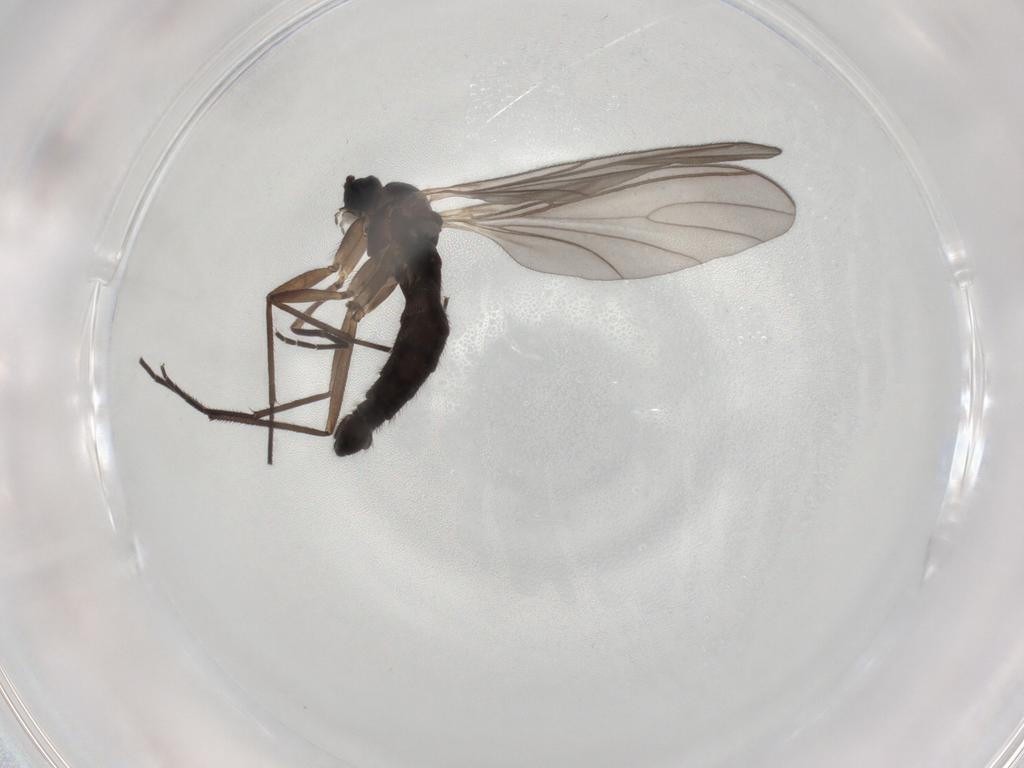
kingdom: Animalia
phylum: Arthropoda
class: Insecta
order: Diptera
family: Sciaridae
